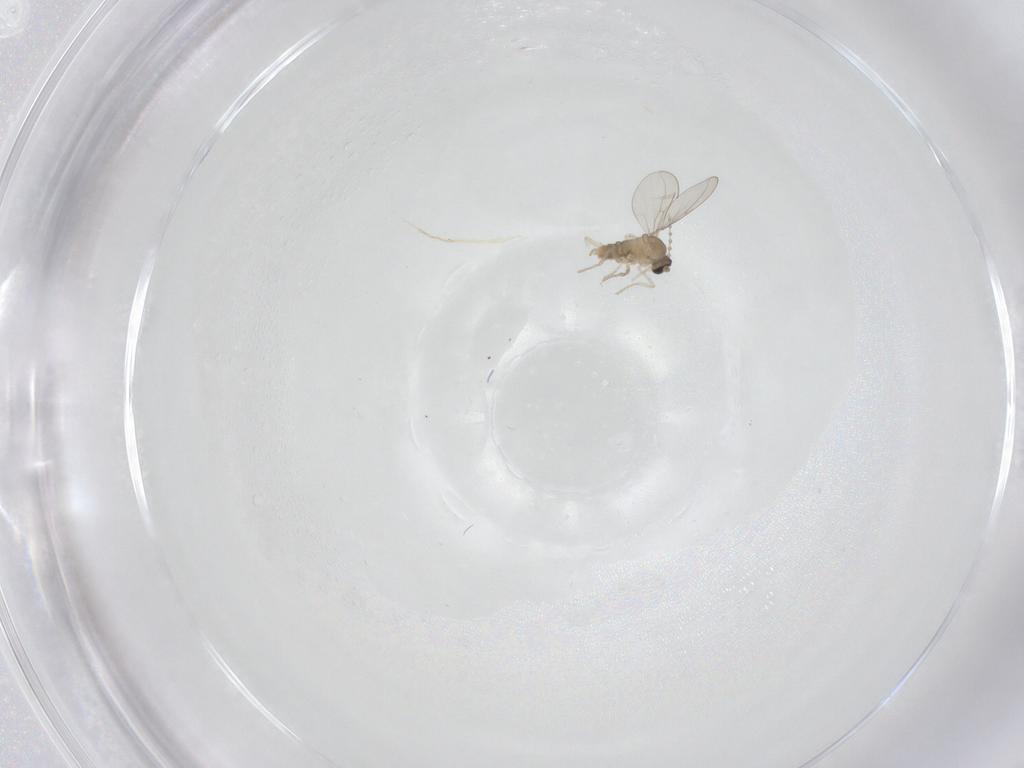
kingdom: Animalia
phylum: Arthropoda
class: Insecta
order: Diptera
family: Cecidomyiidae
